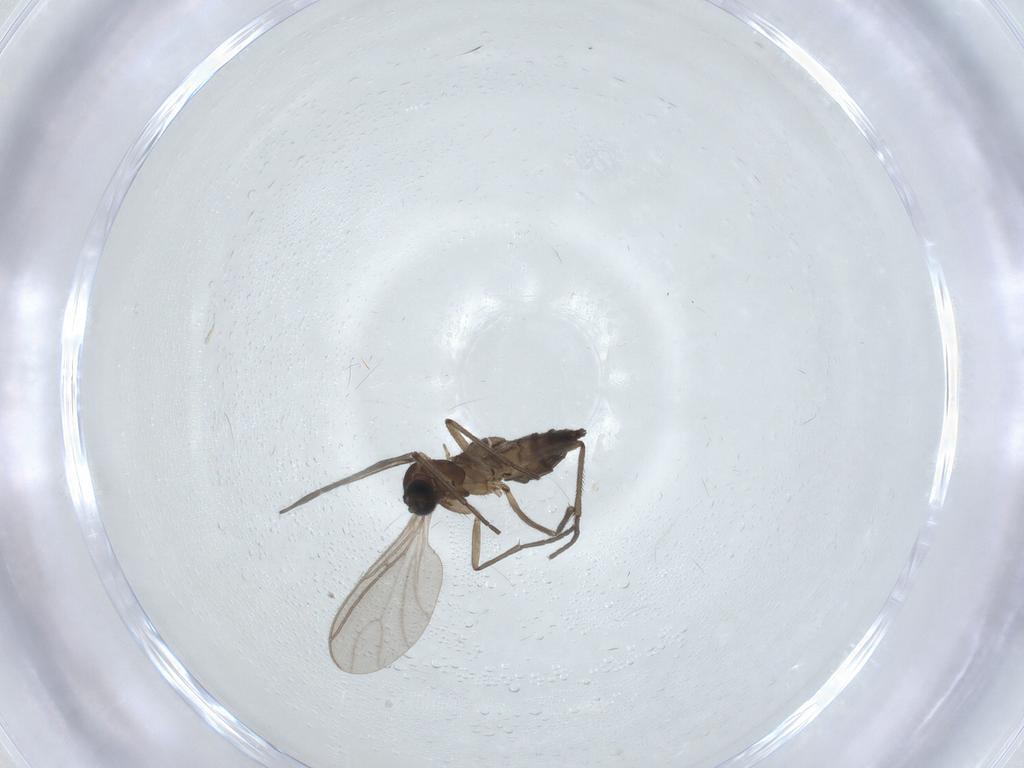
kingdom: Animalia
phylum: Arthropoda
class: Insecta
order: Diptera
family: Sciaridae
